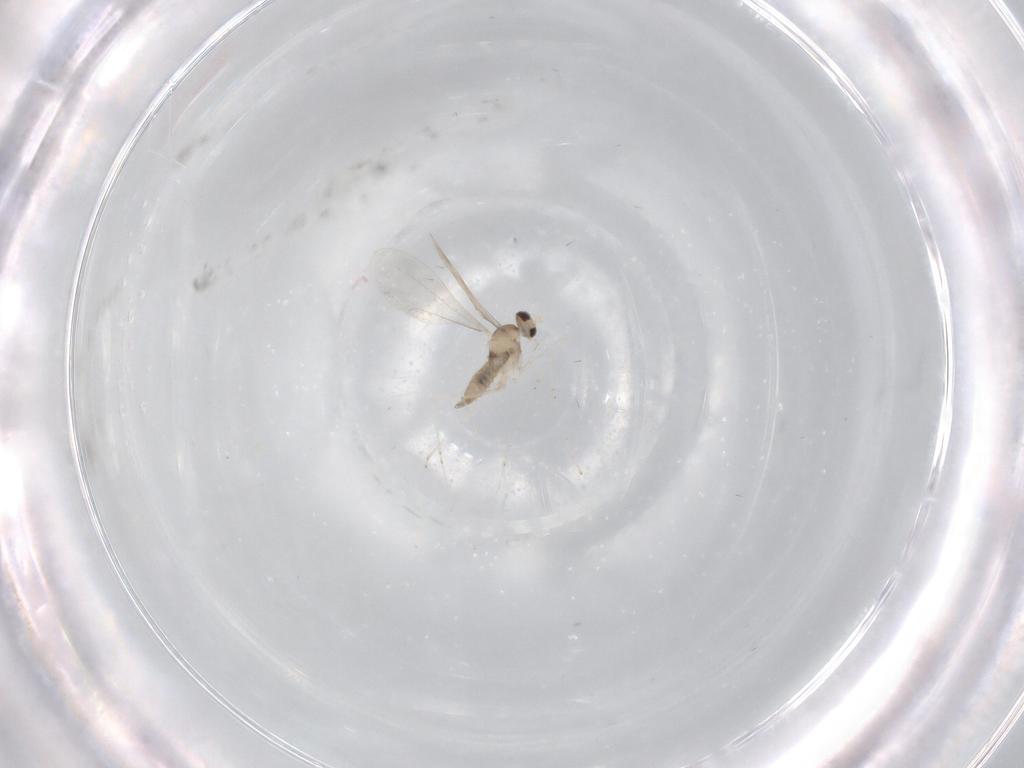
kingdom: Animalia
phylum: Arthropoda
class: Insecta
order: Diptera
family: Cecidomyiidae
